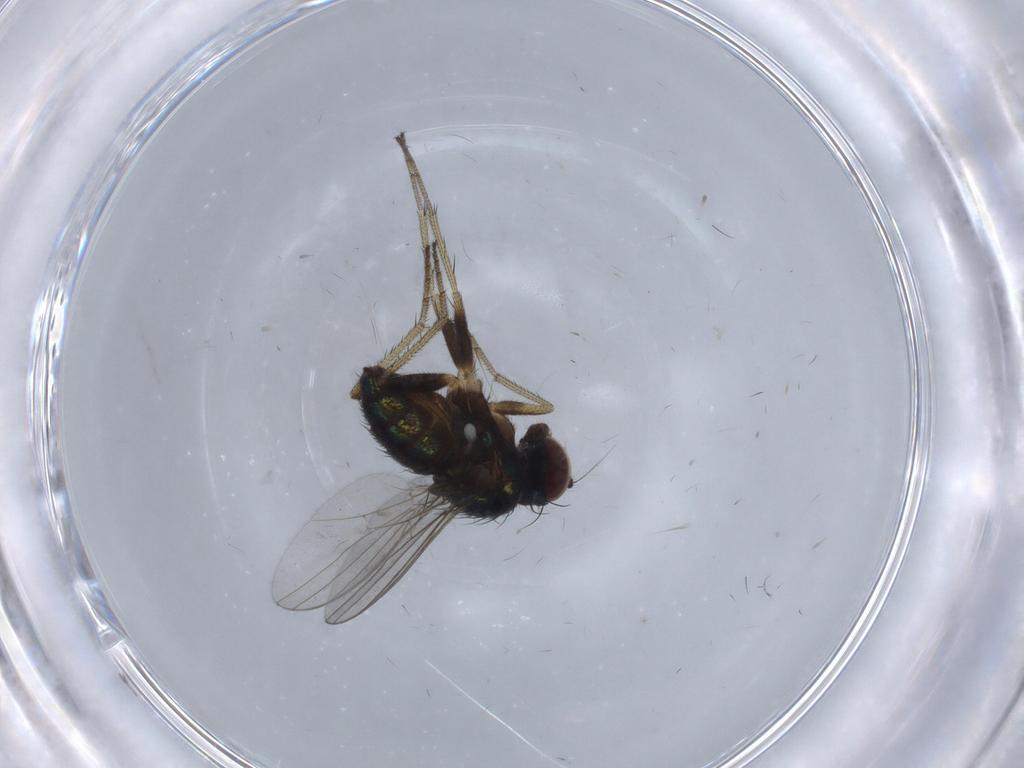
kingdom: Animalia
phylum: Arthropoda
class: Insecta
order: Diptera
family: Chironomidae
